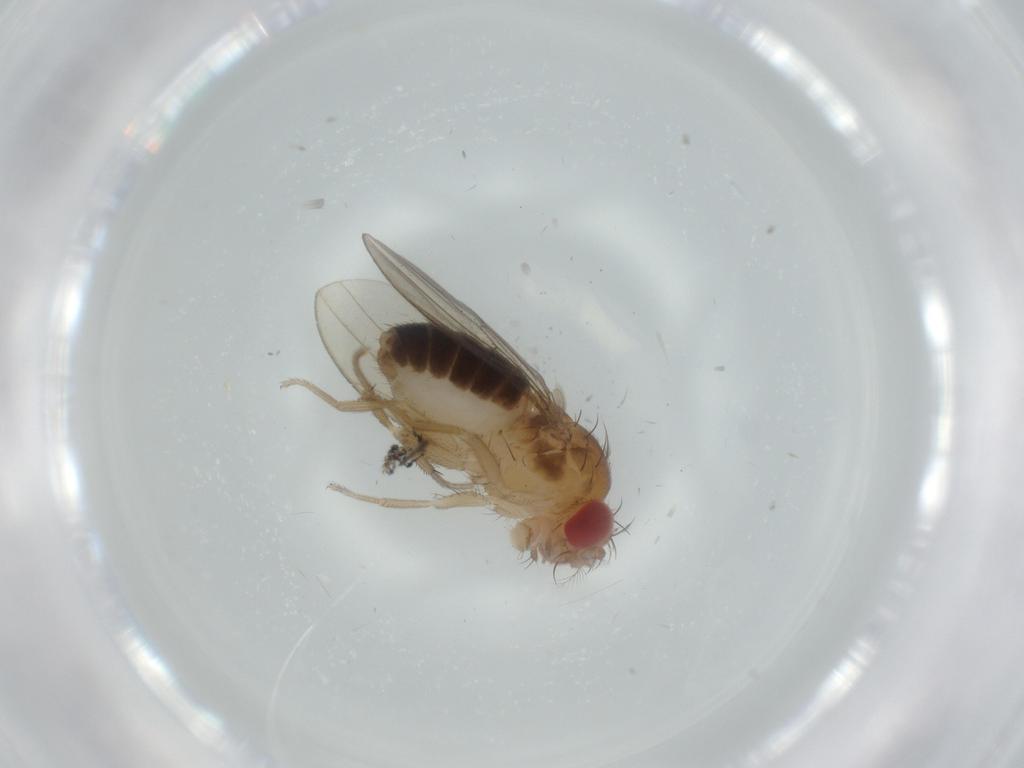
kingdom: Animalia
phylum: Arthropoda
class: Insecta
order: Diptera
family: Drosophilidae
